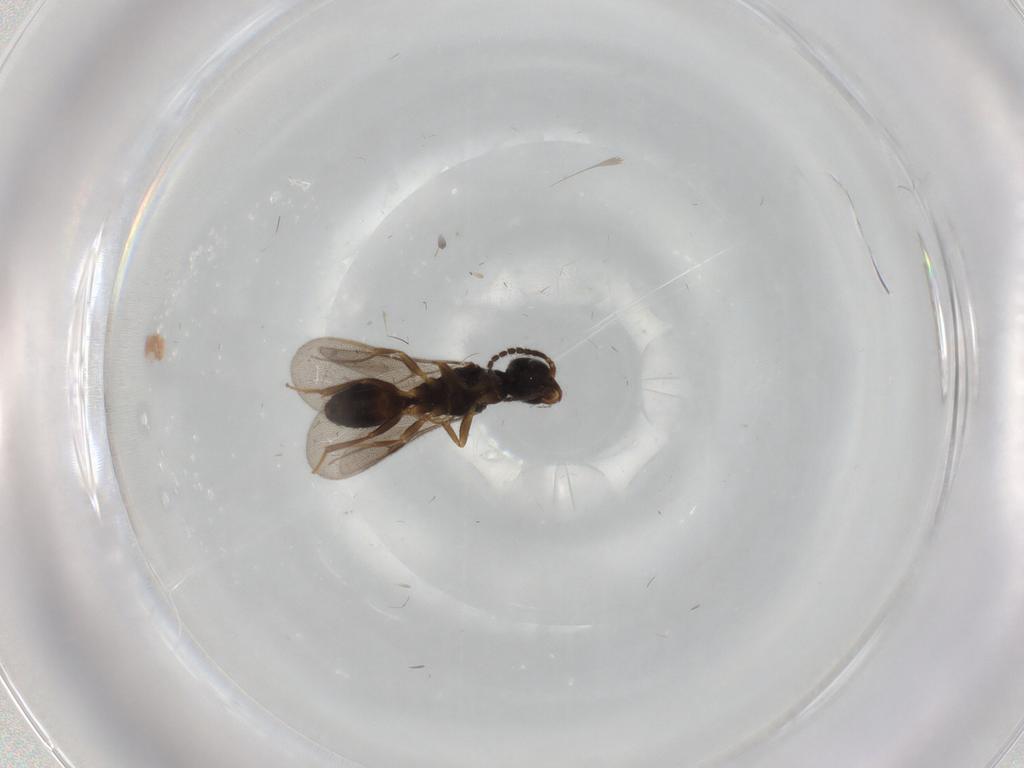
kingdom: Animalia
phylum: Arthropoda
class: Insecta
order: Hymenoptera
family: Bethylidae
